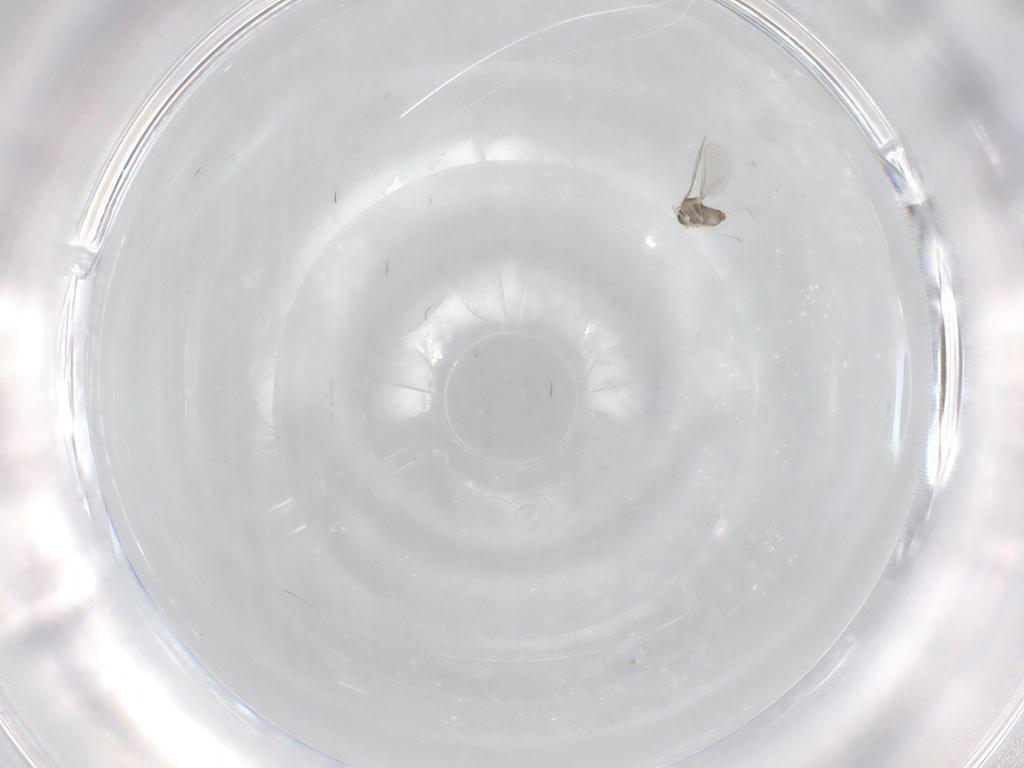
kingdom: Animalia
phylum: Arthropoda
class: Insecta
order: Diptera
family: Cecidomyiidae
